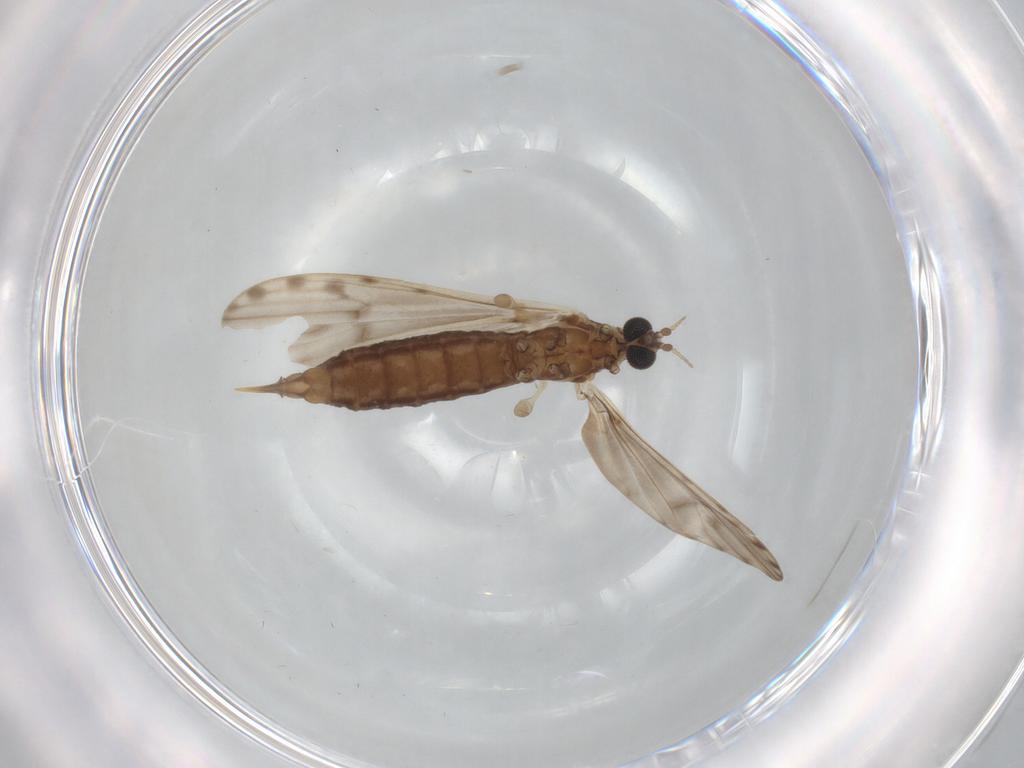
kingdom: Animalia
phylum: Arthropoda
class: Insecta
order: Diptera
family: Limoniidae
